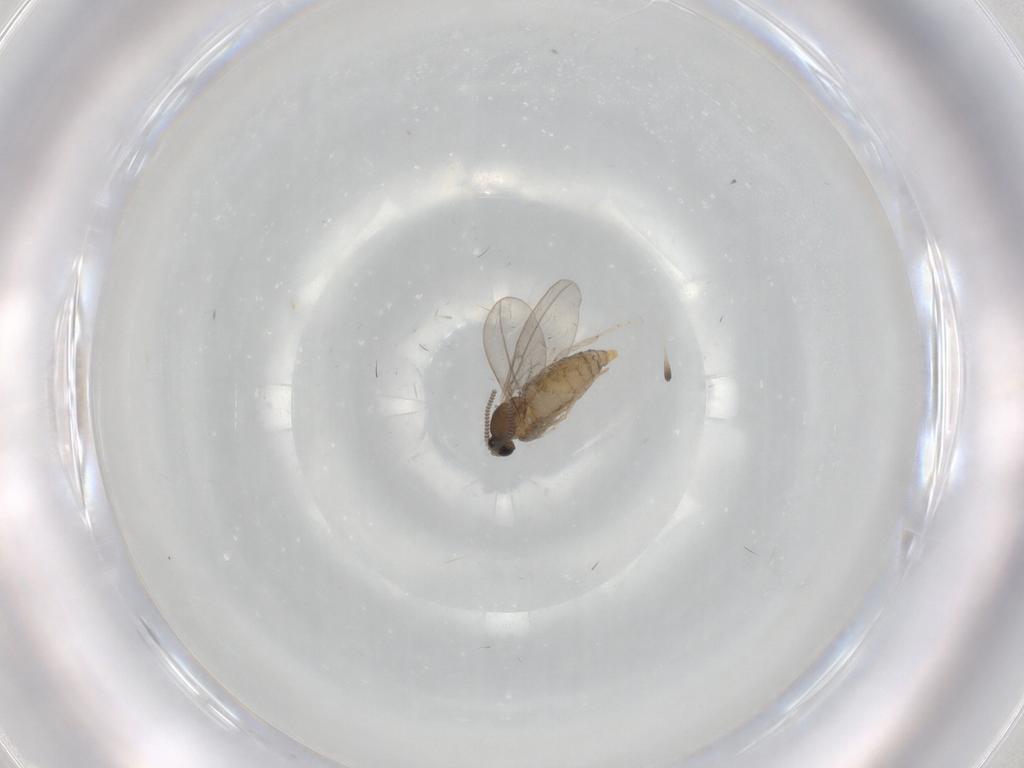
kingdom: Animalia
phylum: Arthropoda
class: Insecta
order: Diptera
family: Cecidomyiidae
